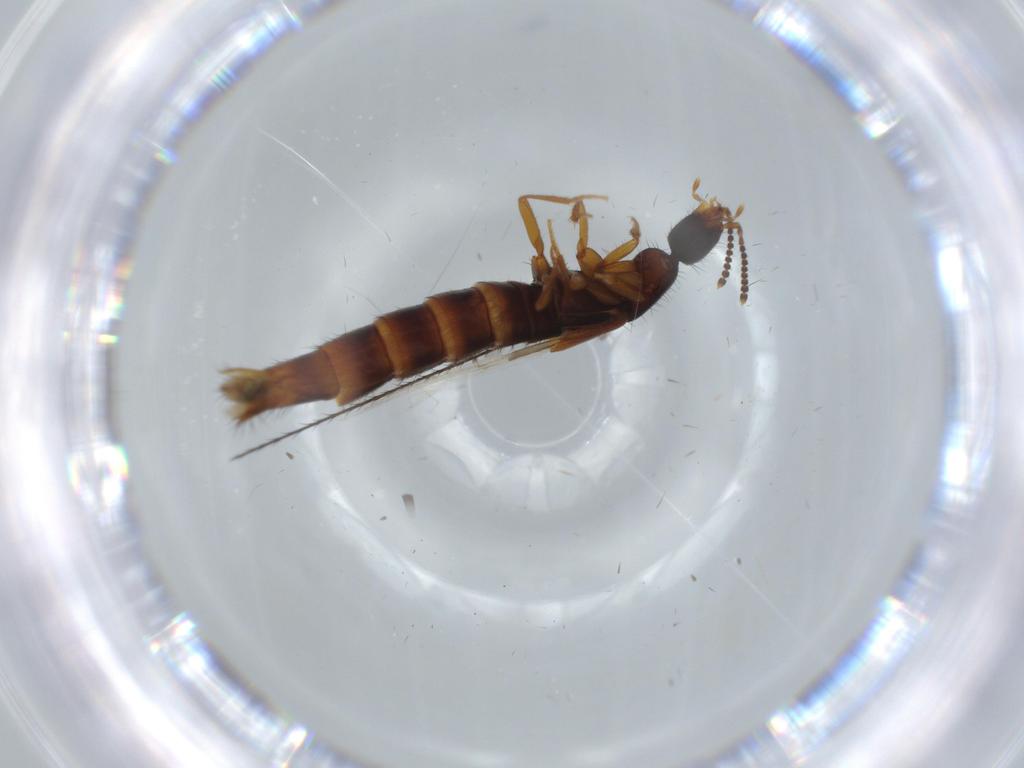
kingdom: Animalia
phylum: Arthropoda
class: Insecta
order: Coleoptera
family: Staphylinidae
